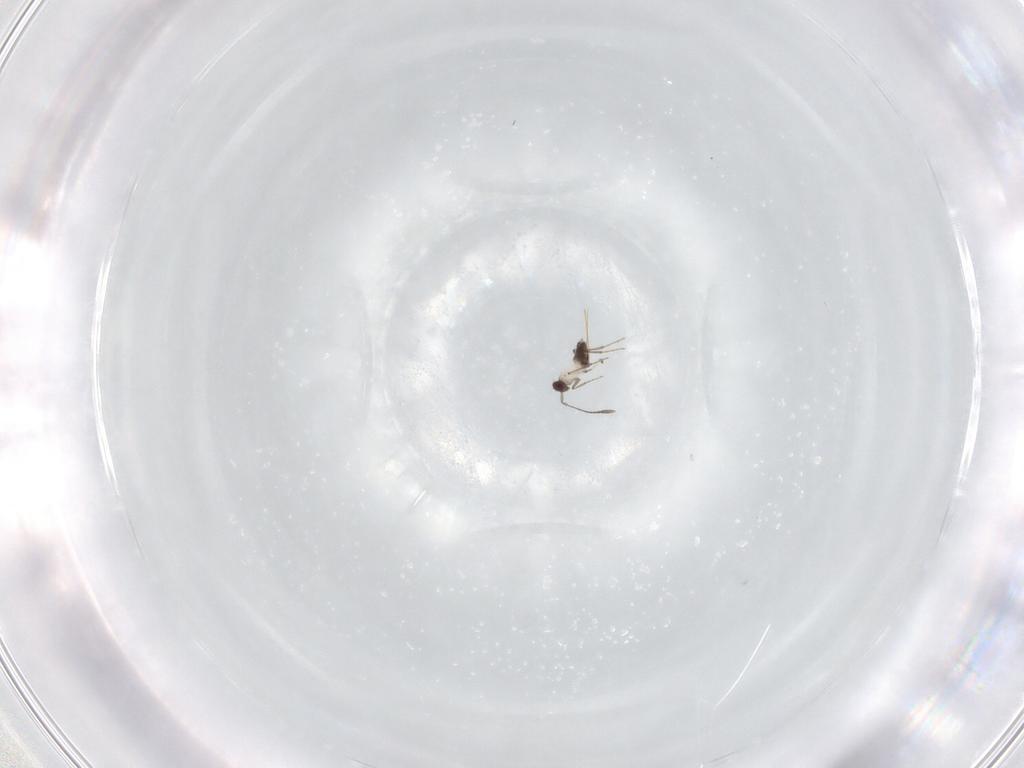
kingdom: Animalia
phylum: Arthropoda
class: Insecta
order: Hymenoptera
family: Mymaridae
